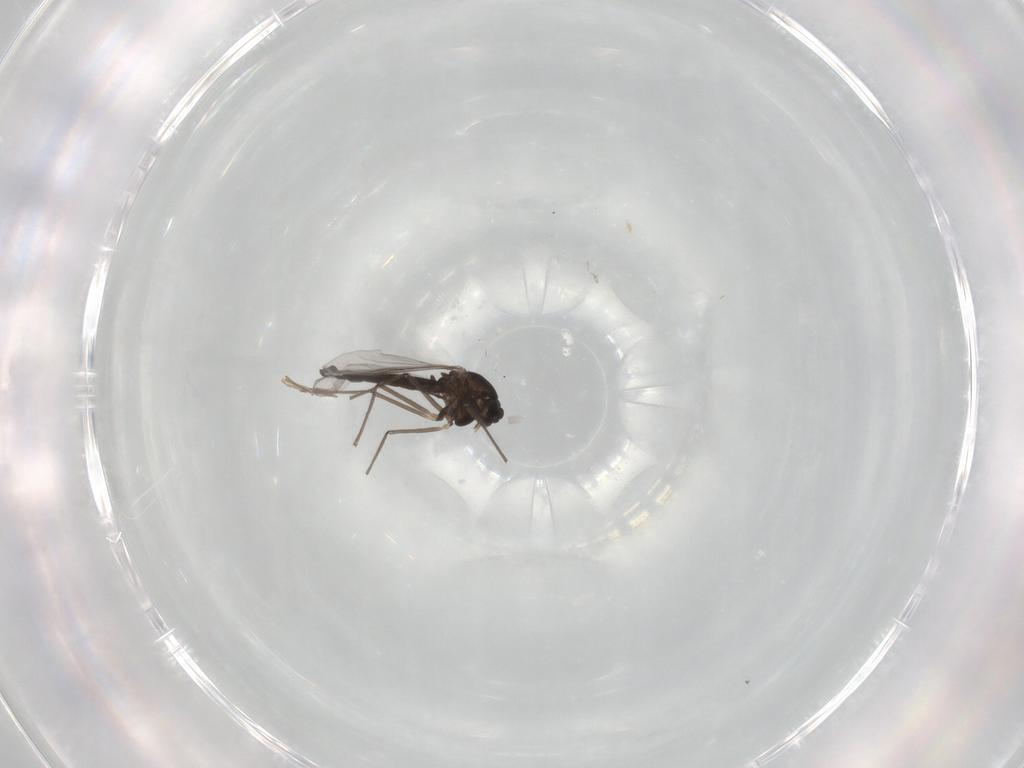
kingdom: Animalia
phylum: Arthropoda
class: Insecta
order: Diptera
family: Chironomidae
